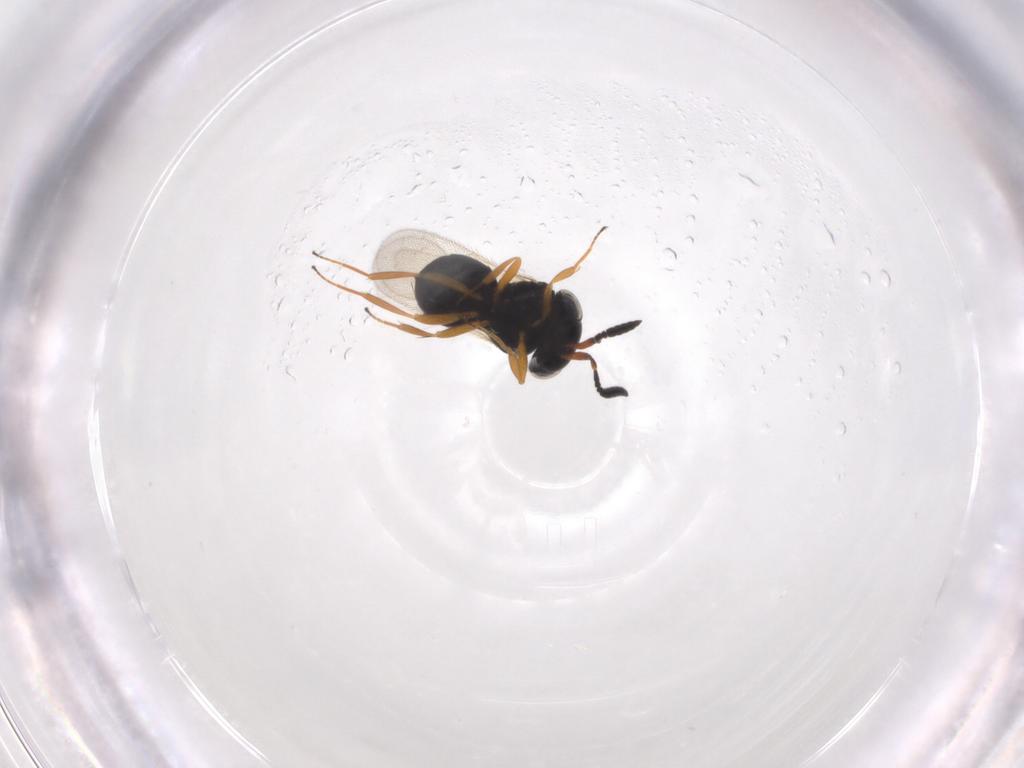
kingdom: Animalia
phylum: Arthropoda
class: Insecta
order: Hymenoptera
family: Scelionidae
